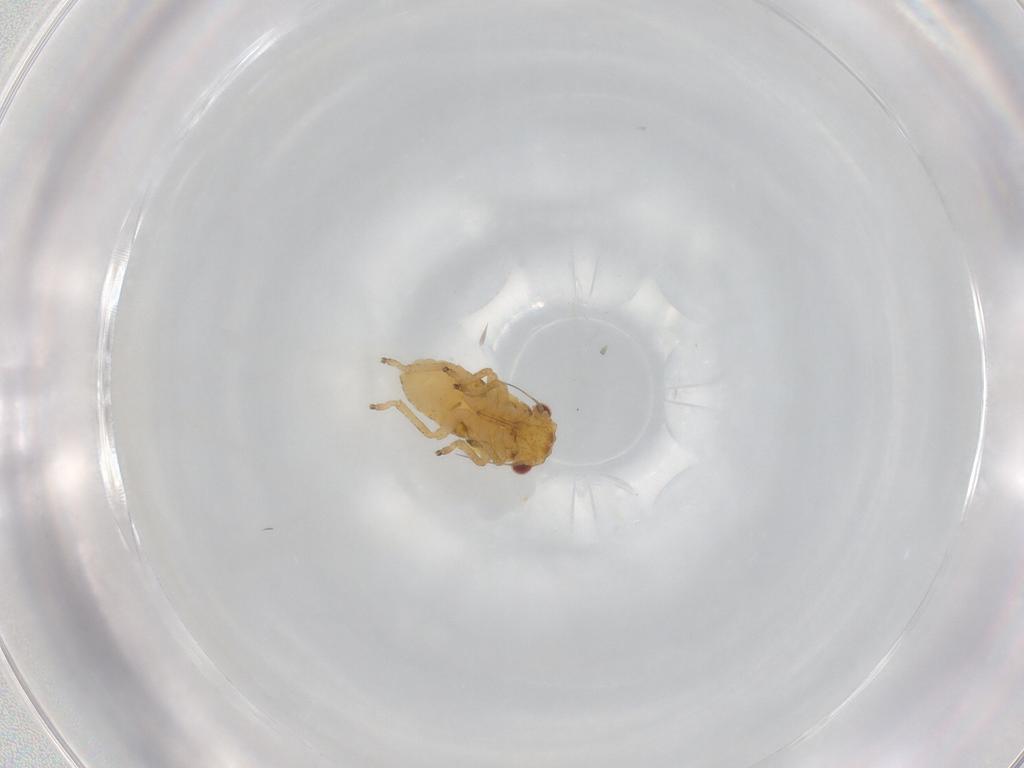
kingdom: Animalia
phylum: Arthropoda
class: Insecta
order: Hemiptera
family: Cicadellidae
